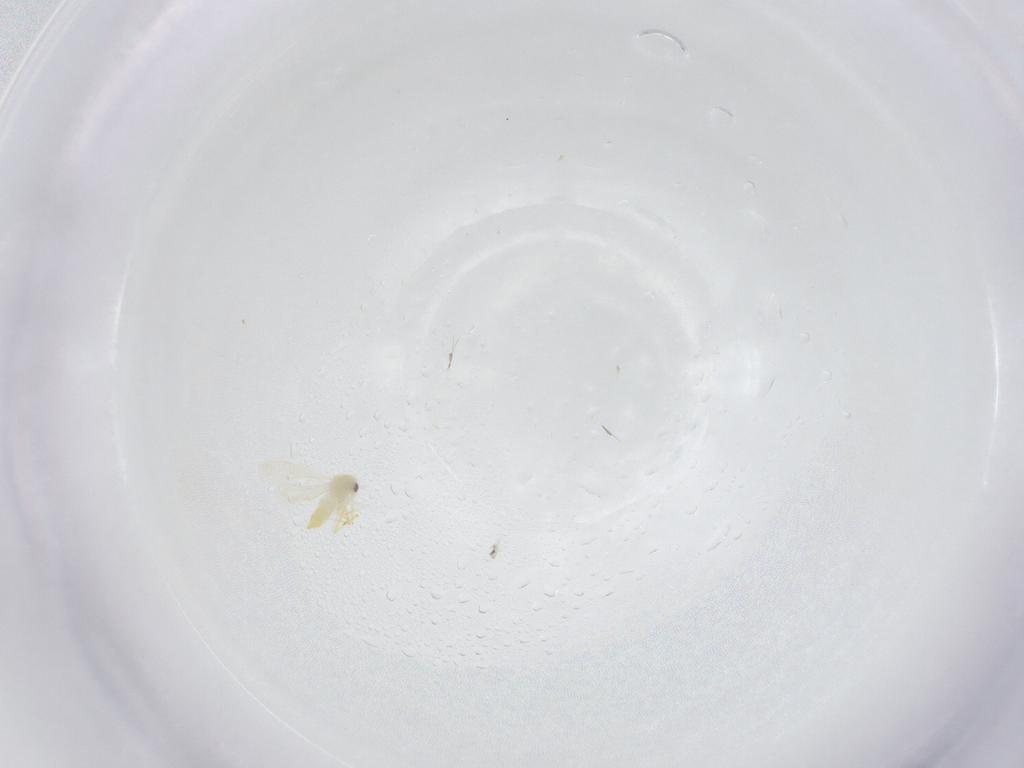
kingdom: Animalia
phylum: Arthropoda
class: Insecta
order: Hemiptera
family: Aleyrodidae
